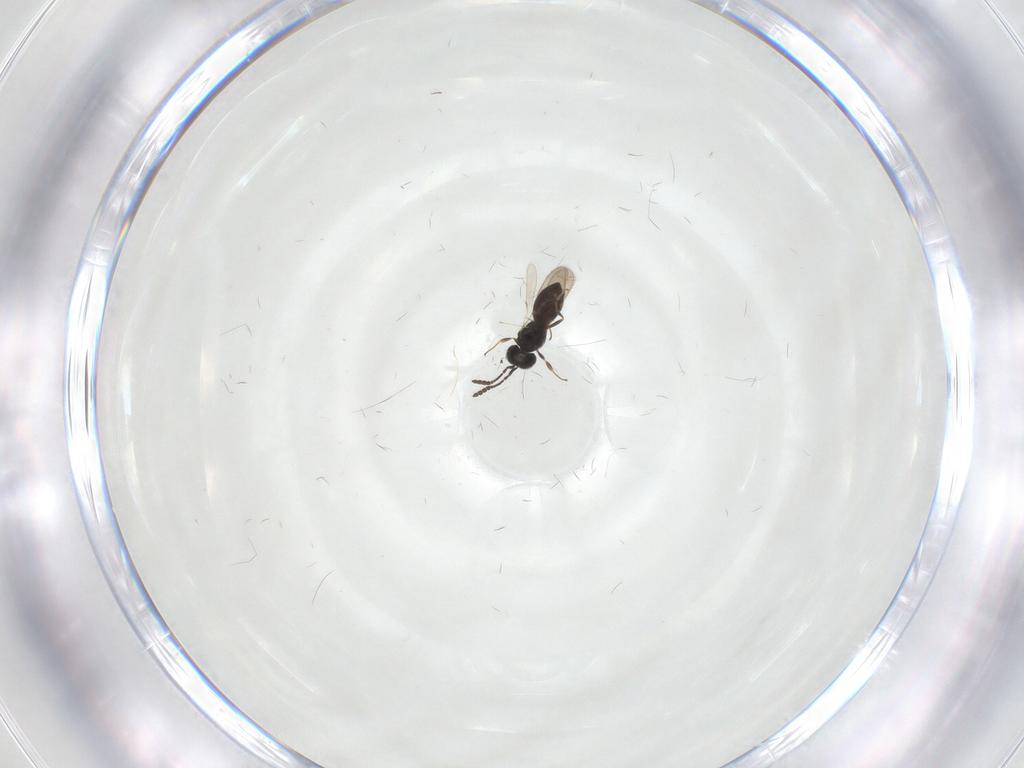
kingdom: Animalia
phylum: Arthropoda
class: Insecta
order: Hymenoptera
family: Scelionidae
